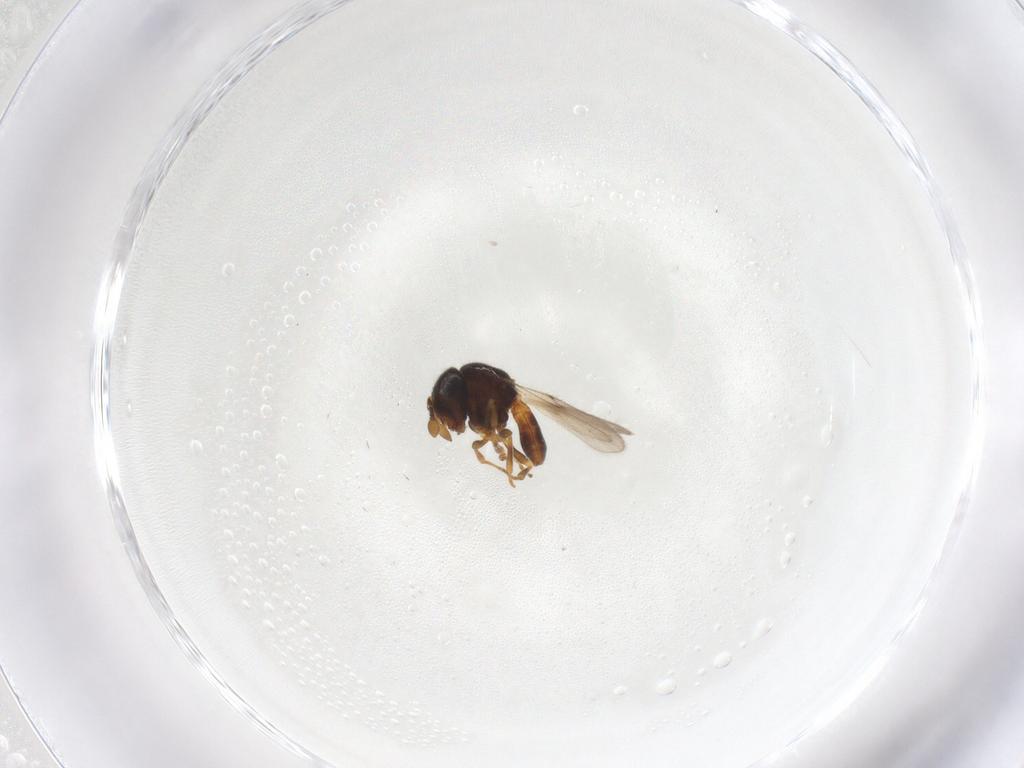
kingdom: Animalia
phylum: Arthropoda
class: Insecta
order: Hymenoptera
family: Scelionidae
